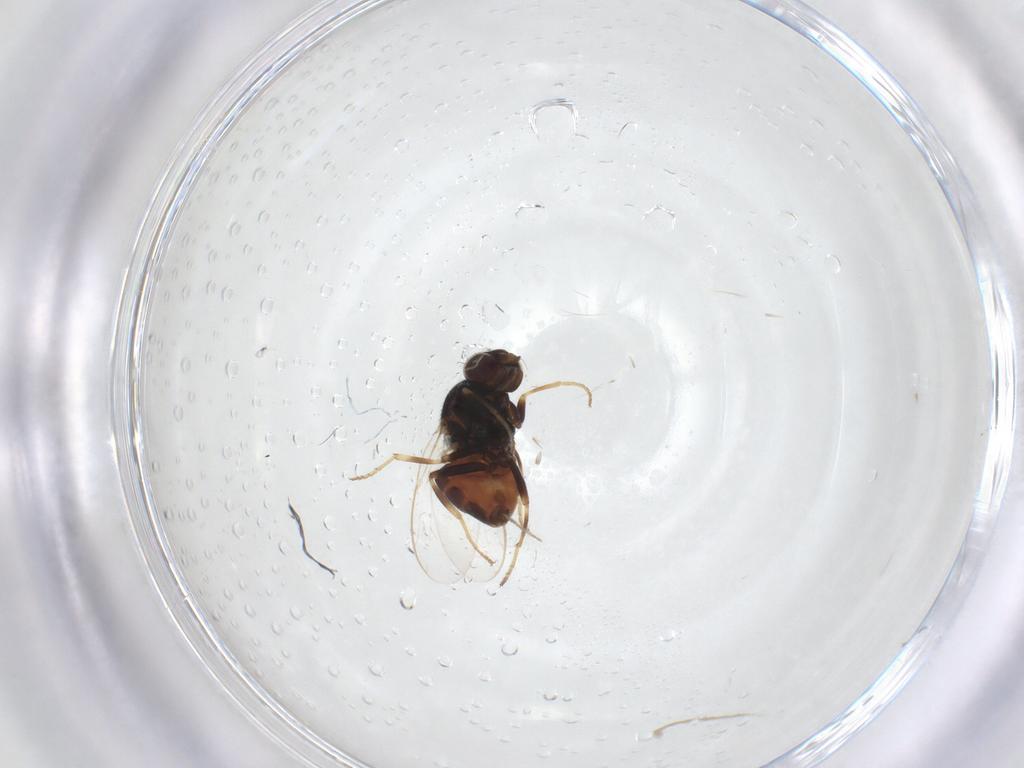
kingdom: Animalia
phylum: Arthropoda
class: Insecta
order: Diptera
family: Chloropidae
